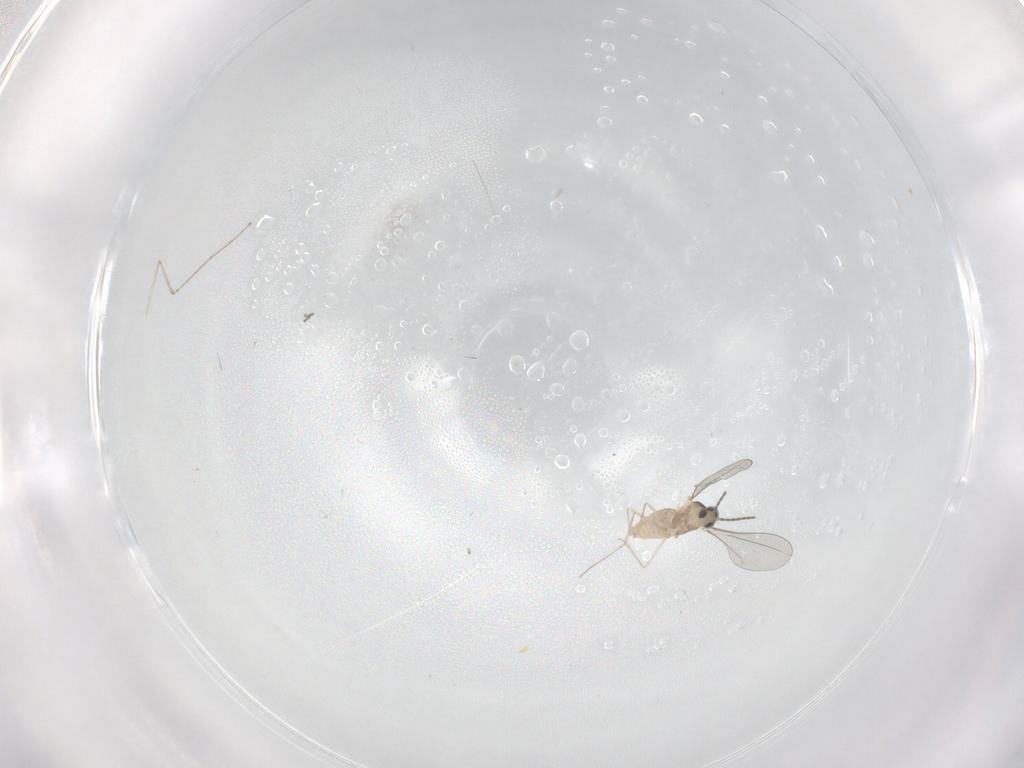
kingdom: Animalia
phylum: Arthropoda
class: Insecta
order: Diptera
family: Cecidomyiidae
